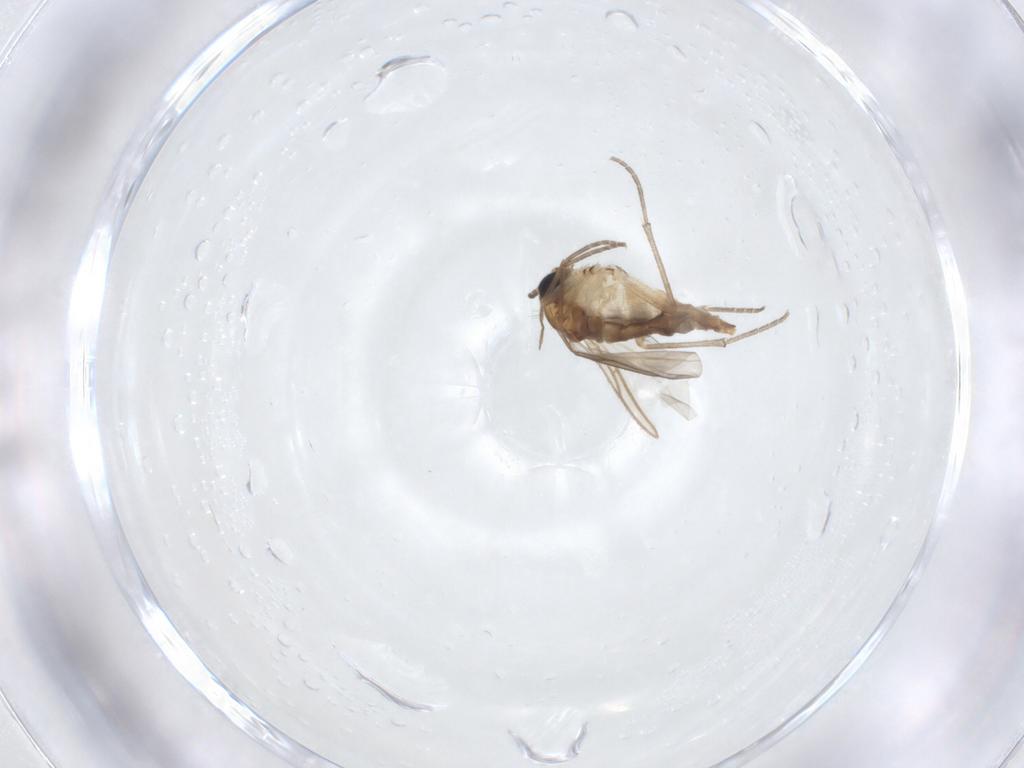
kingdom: Animalia
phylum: Arthropoda
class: Insecta
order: Diptera
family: Sciaridae
